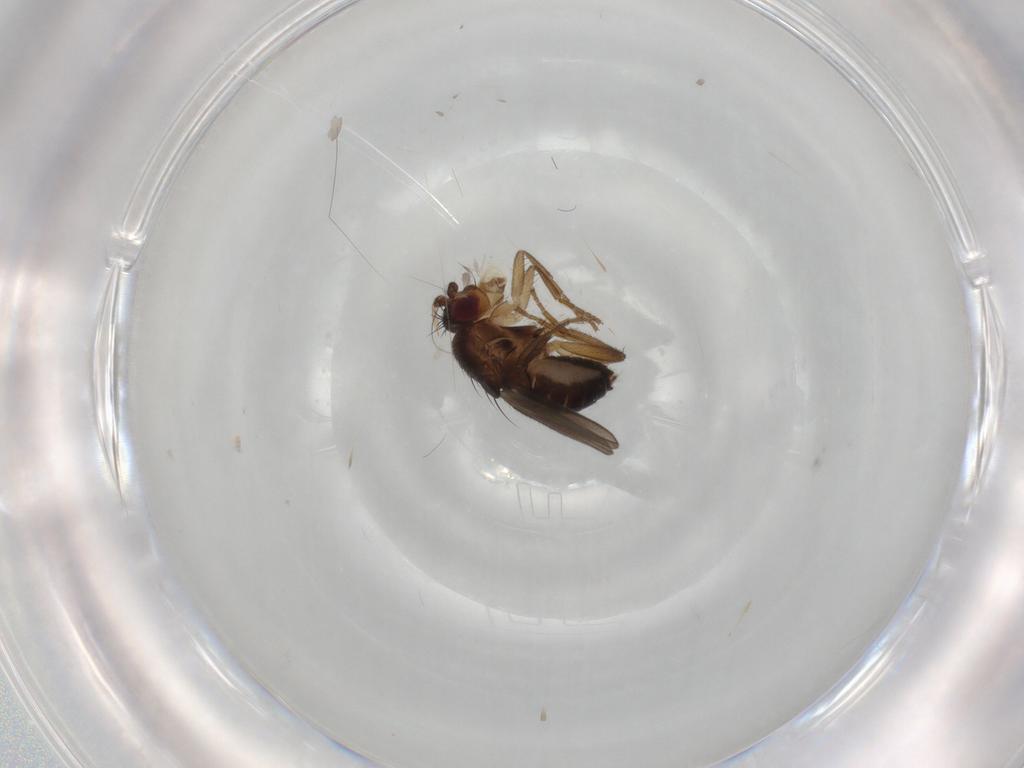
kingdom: Animalia
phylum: Arthropoda
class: Insecta
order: Diptera
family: Sphaeroceridae
